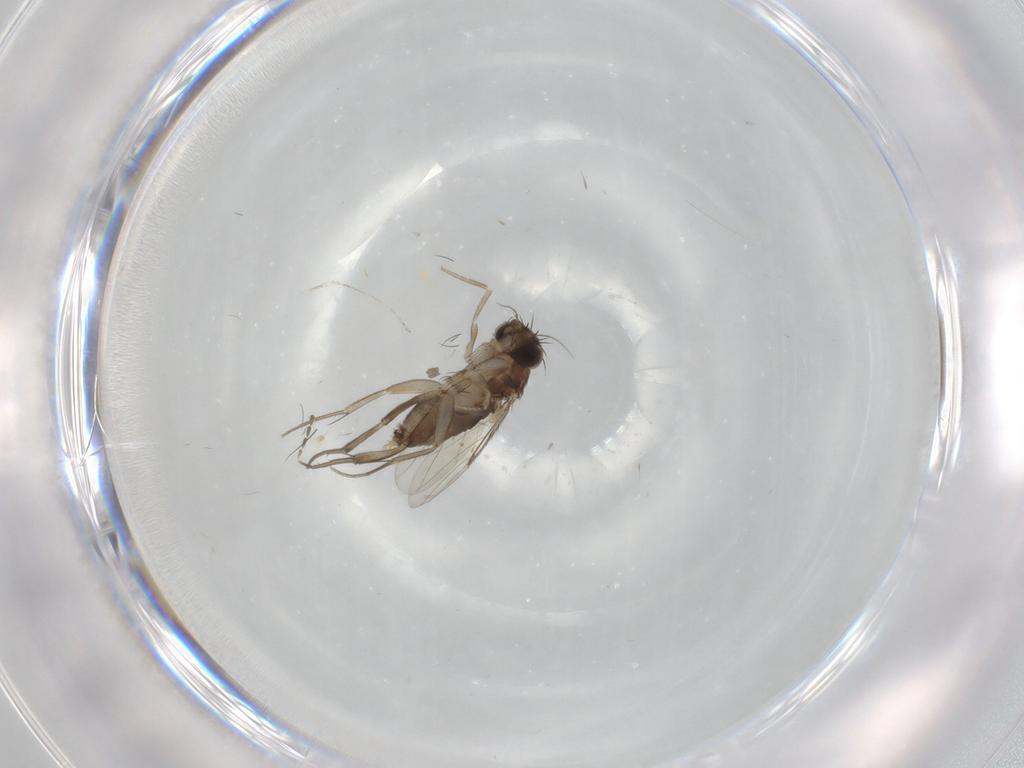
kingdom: Animalia
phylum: Arthropoda
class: Insecta
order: Diptera
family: Phoridae
